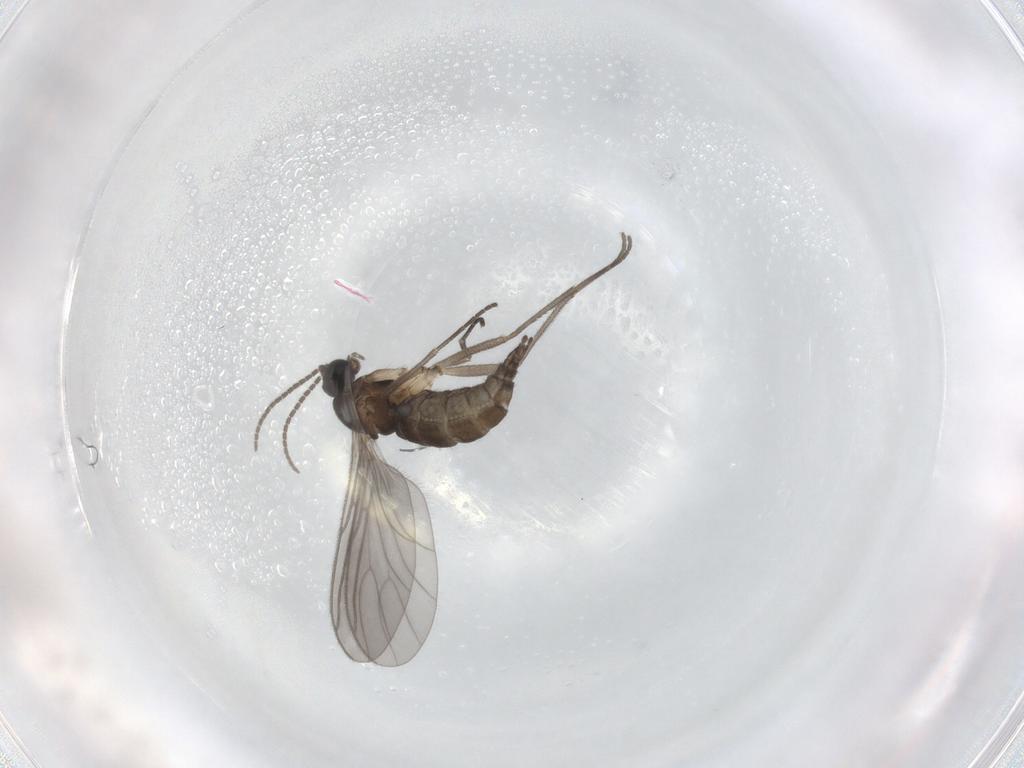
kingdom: Animalia
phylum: Arthropoda
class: Insecta
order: Diptera
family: Sciaridae
